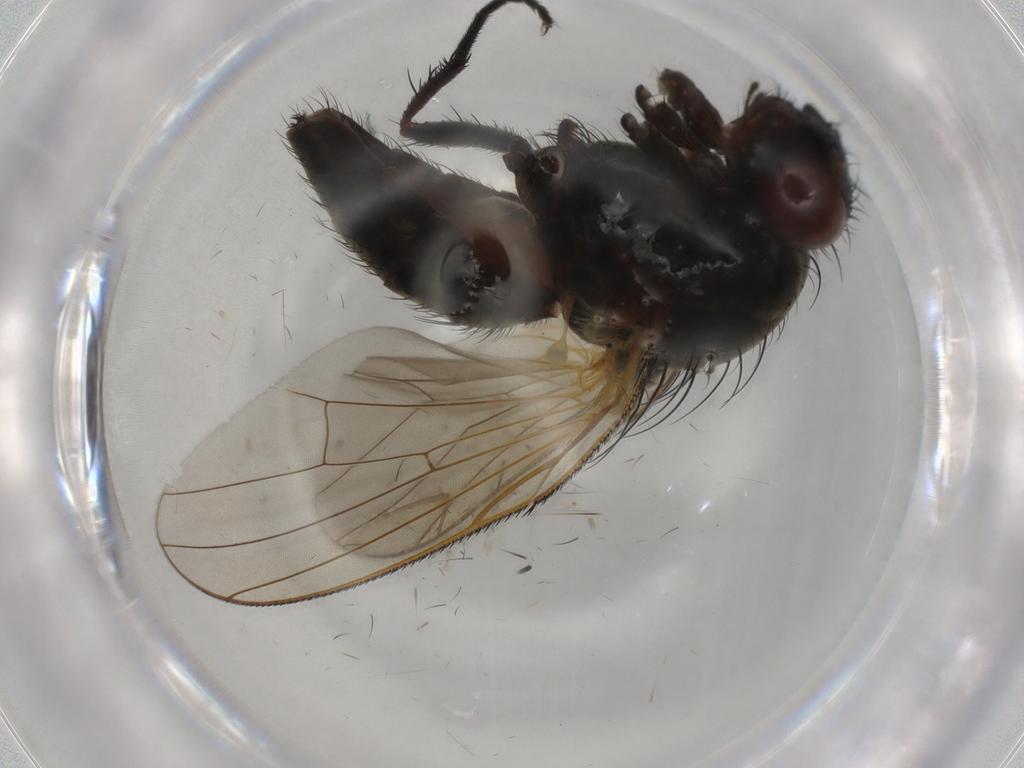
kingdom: Animalia
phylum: Arthropoda
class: Insecta
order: Diptera
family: Anthomyiidae
